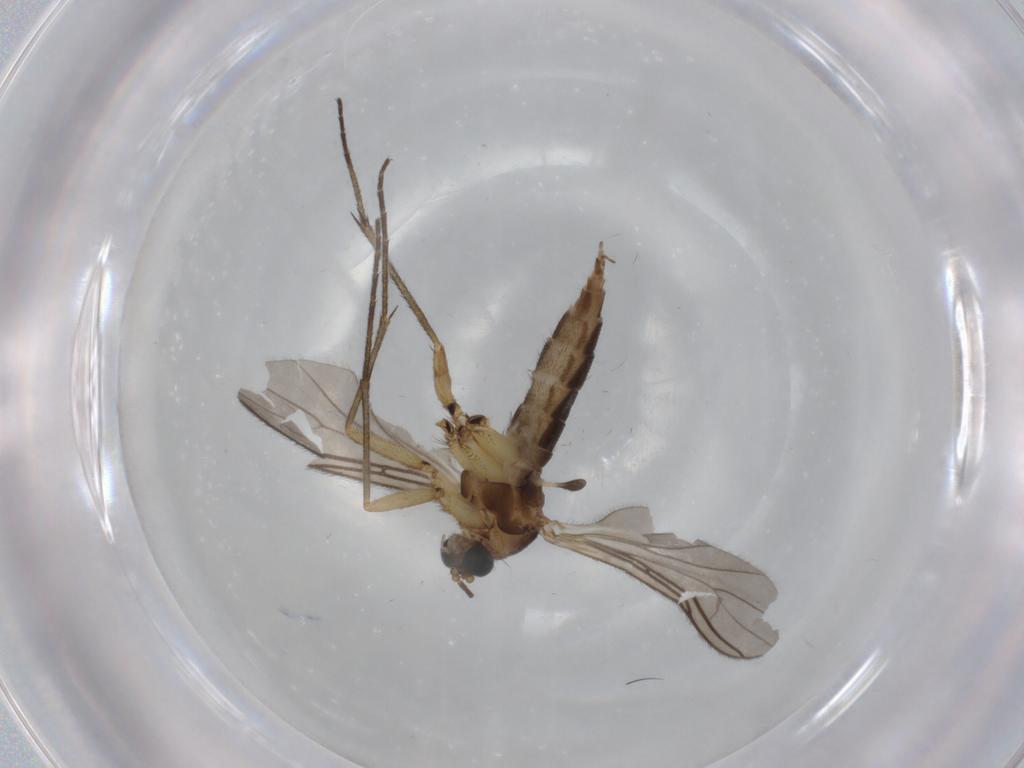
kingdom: Animalia
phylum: Arthropoda
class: Insecta
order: Diptera
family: Sciaridae
